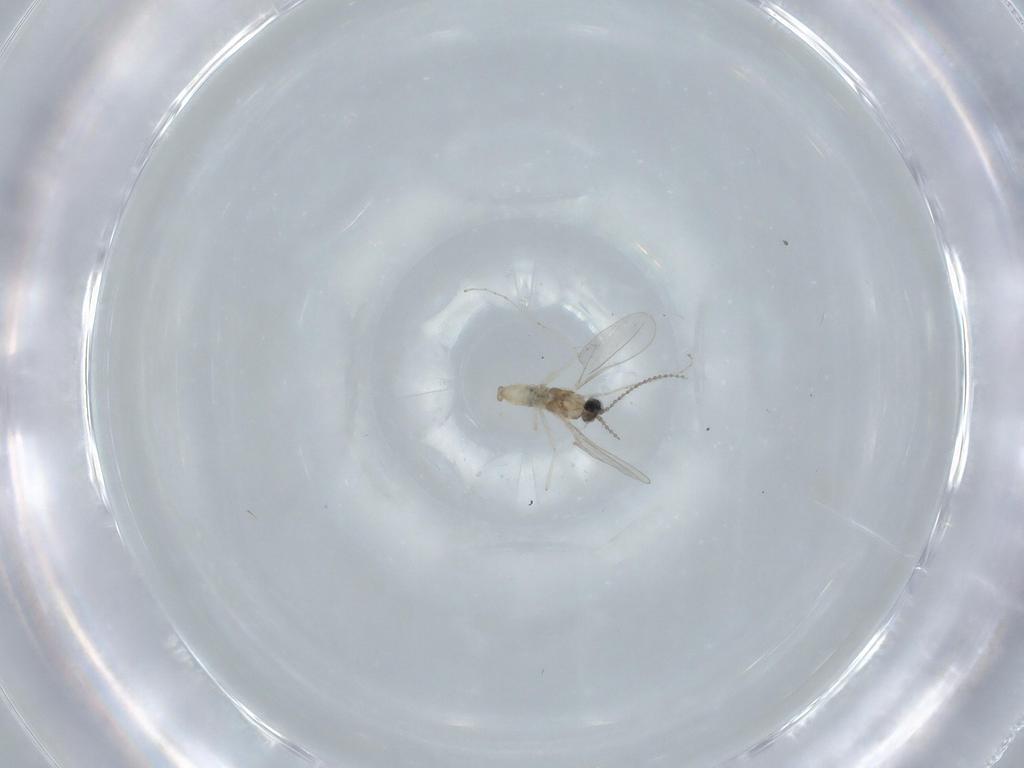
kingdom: Animalia
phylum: Arthropoda
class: Insecta
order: Diptera
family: Cecidomyiidae
